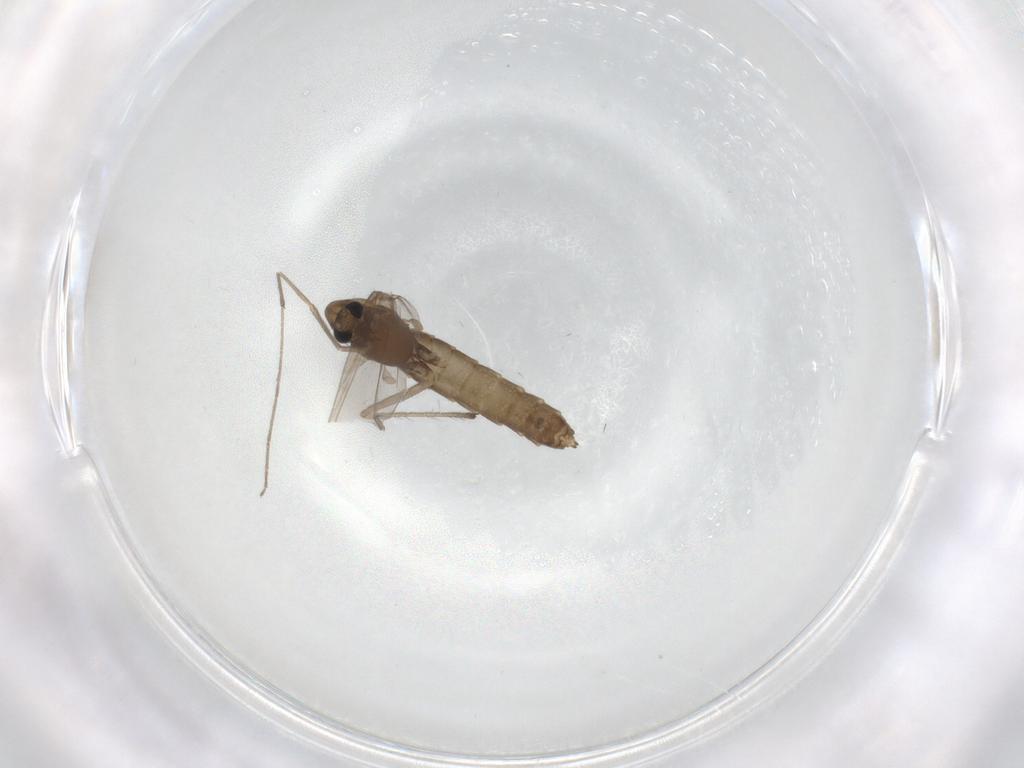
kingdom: Animalia
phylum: Arthropoda
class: Insecta
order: Diptera
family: Chironomidae
